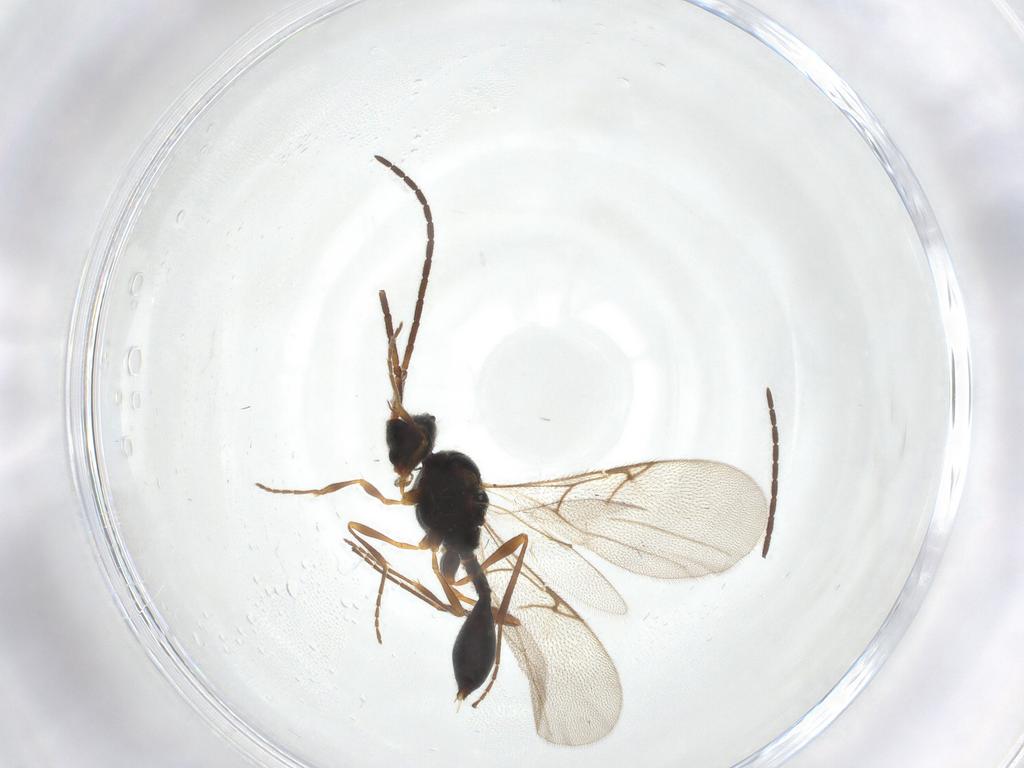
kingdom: Animalia
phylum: Arthropoda
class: Insecta
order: Hymenoptera
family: Diapriidae
